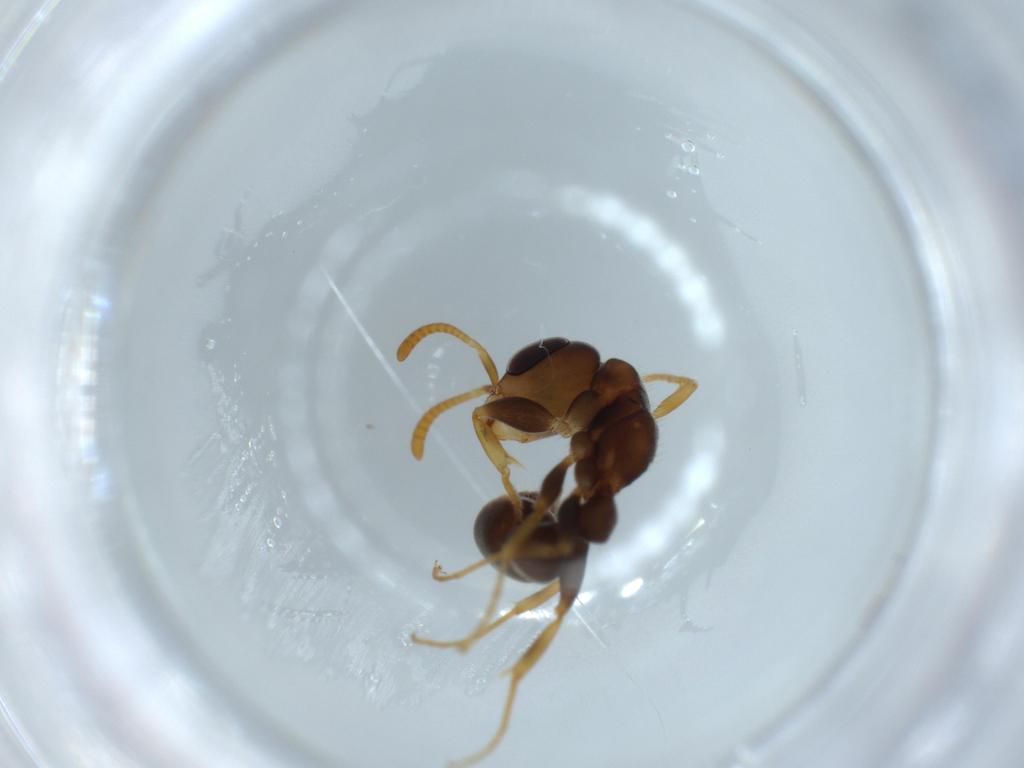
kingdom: Animalia
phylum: Arthropoda
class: Insecta
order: Hymenoptera
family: Formicidae
